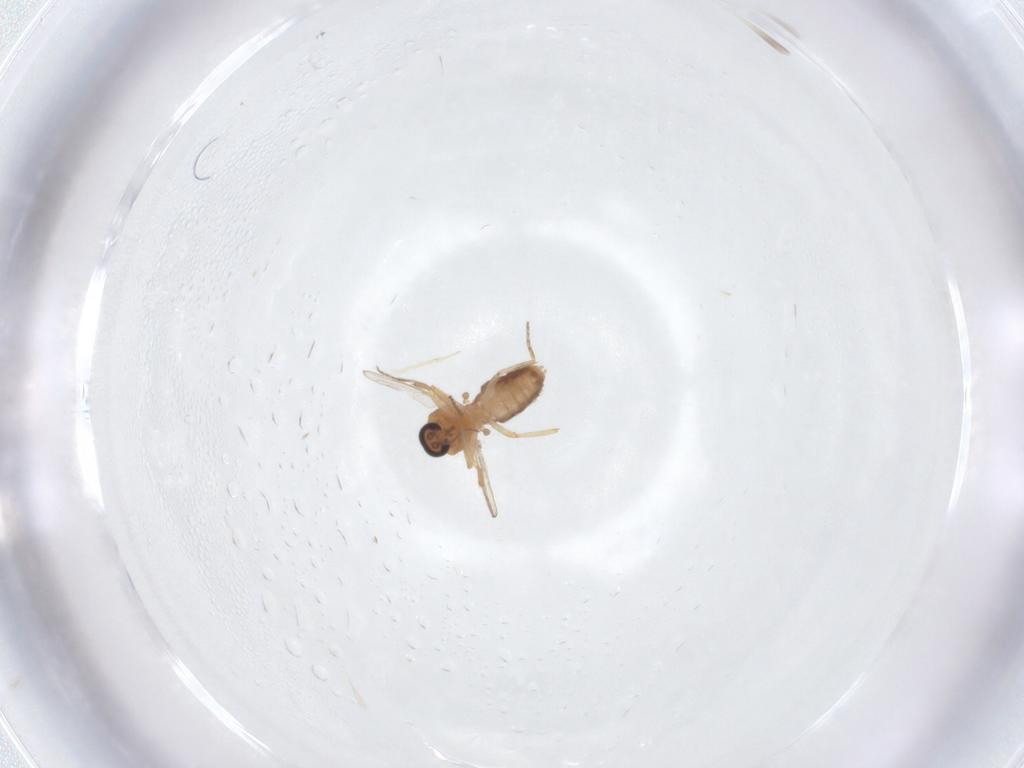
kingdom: Animalia
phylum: Arthropoda
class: Insecta
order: Diptera
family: Ceratopogonidae
